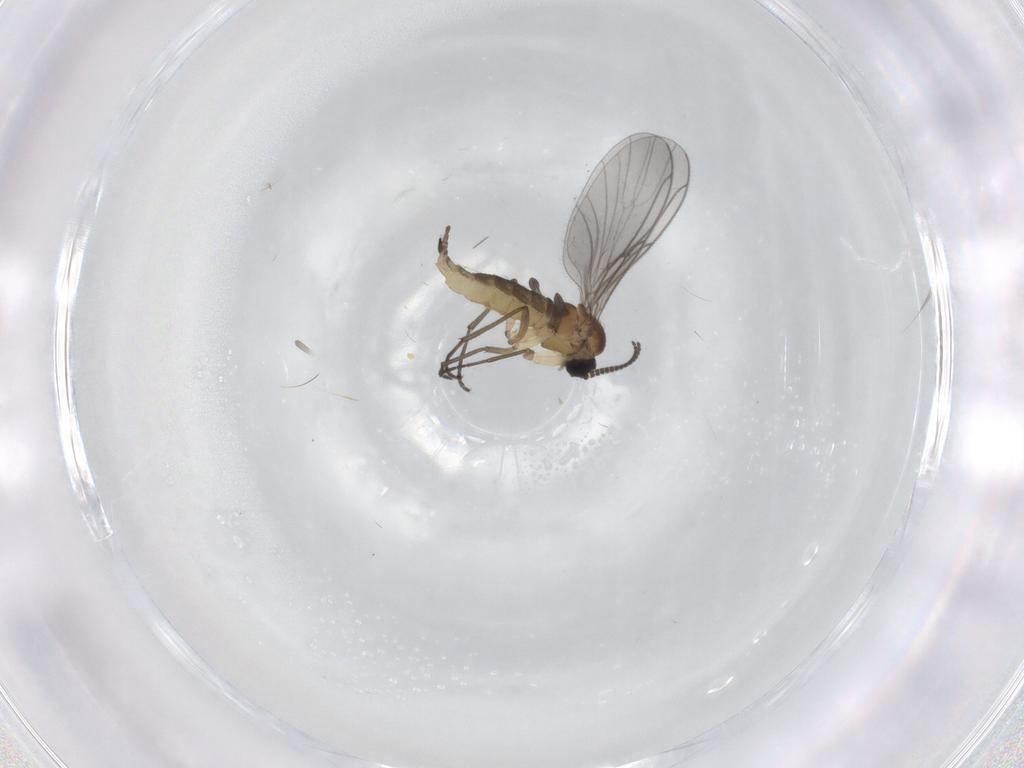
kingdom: Animalia
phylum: Arthropoda
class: Insecta
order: Diptera
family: Sciaridae
